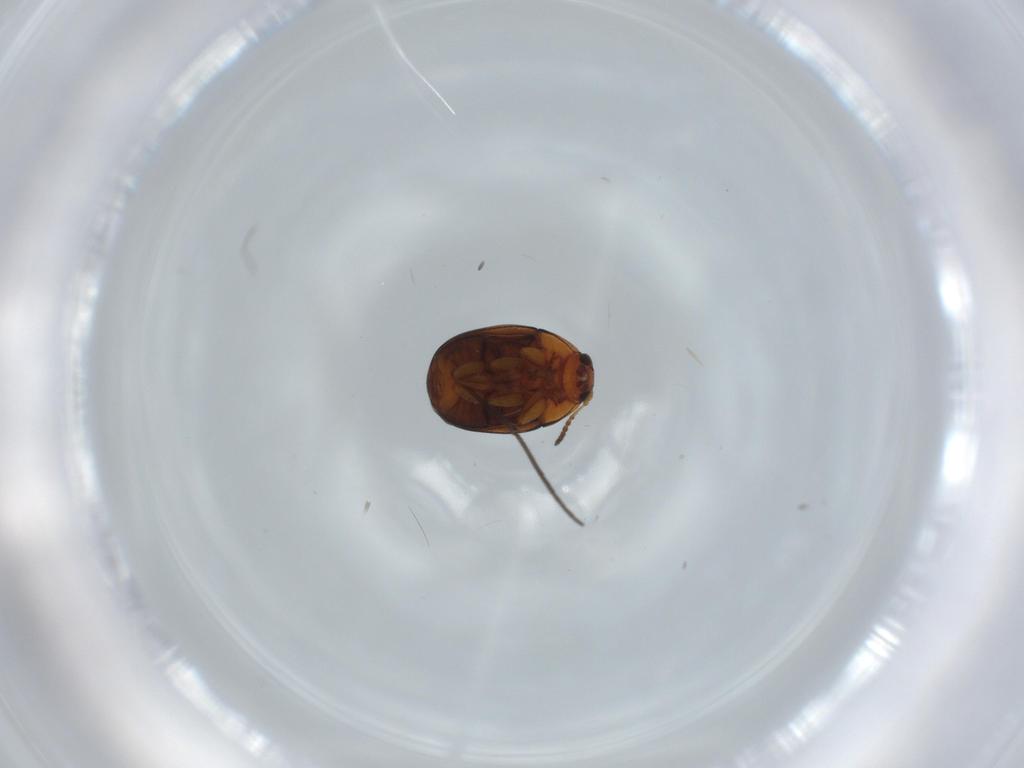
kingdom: Animalia
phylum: Arthropoda
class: Insecta
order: Coleoptera
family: Chrysomelidae
